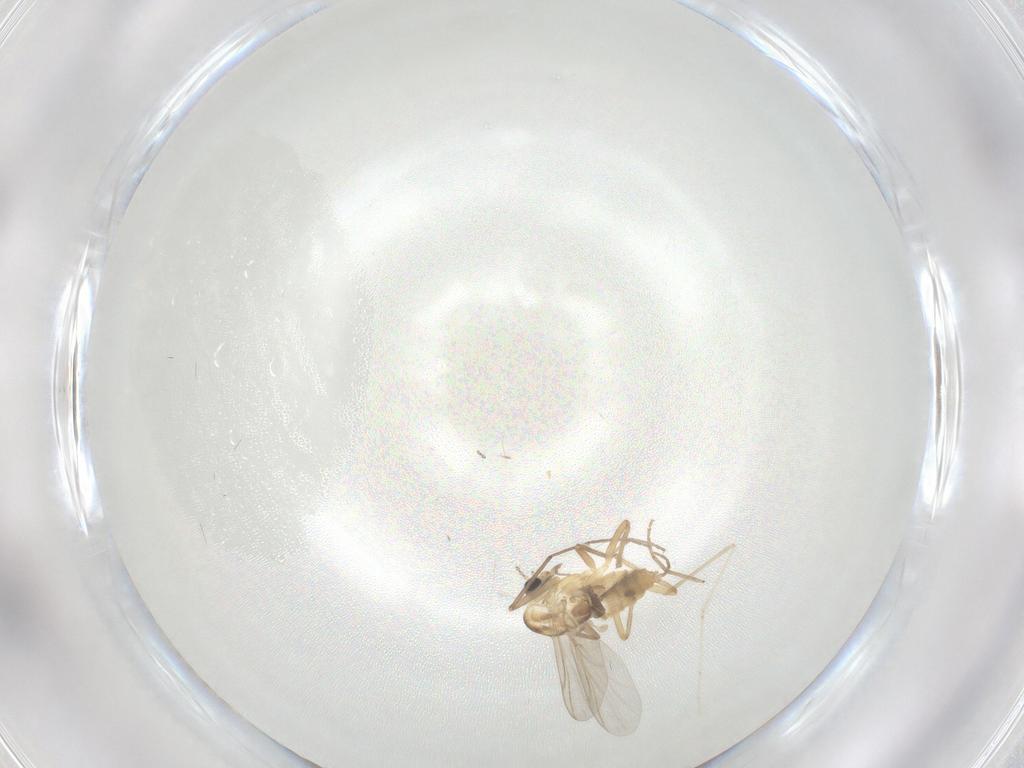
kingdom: Animalia
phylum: Arthropoda
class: Insecta
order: Diptera
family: Chironomidae
